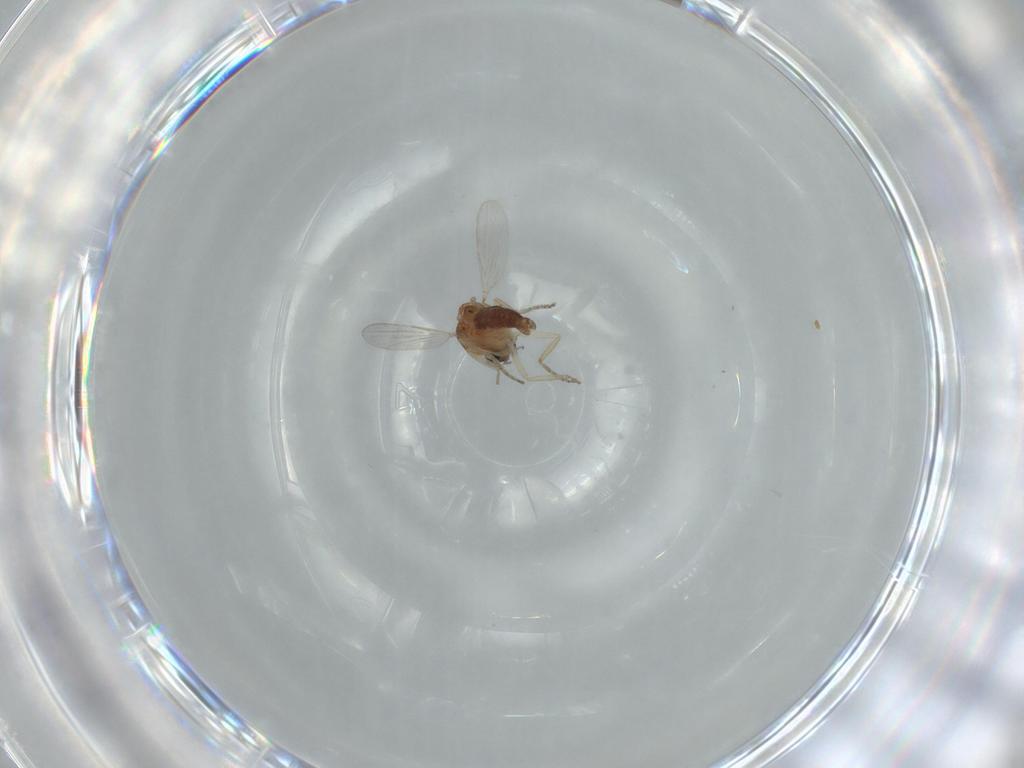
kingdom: Animalia
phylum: Arthropoda
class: Insecta
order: Diptera
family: Ceratopogonidae
